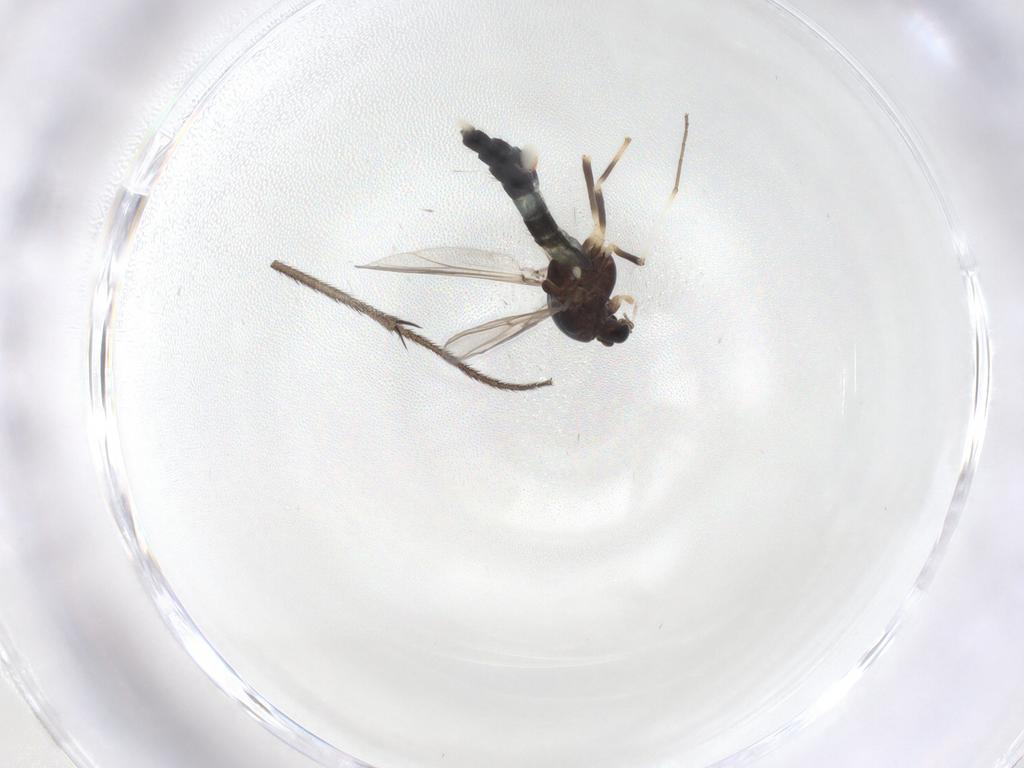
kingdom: Animalia
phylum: Arthropoda
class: Insecta
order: Diptera
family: Chironomidae
